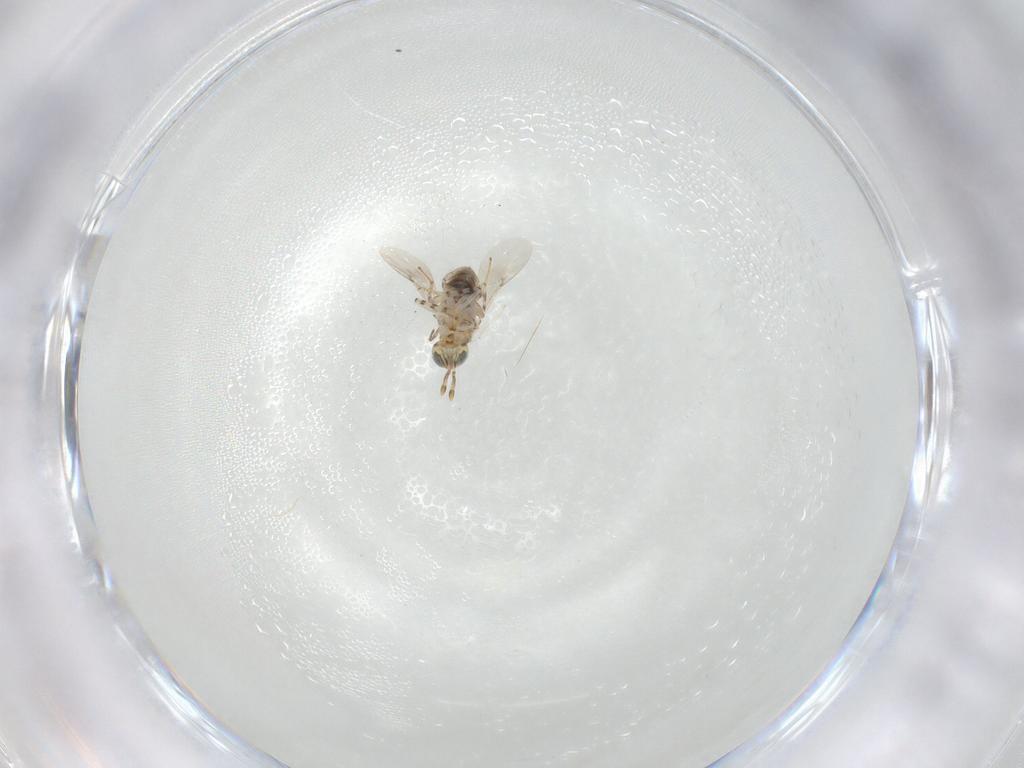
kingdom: Animalia
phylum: Arthropoda
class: Insecta
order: Hymenoptera
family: Encyrtidae
